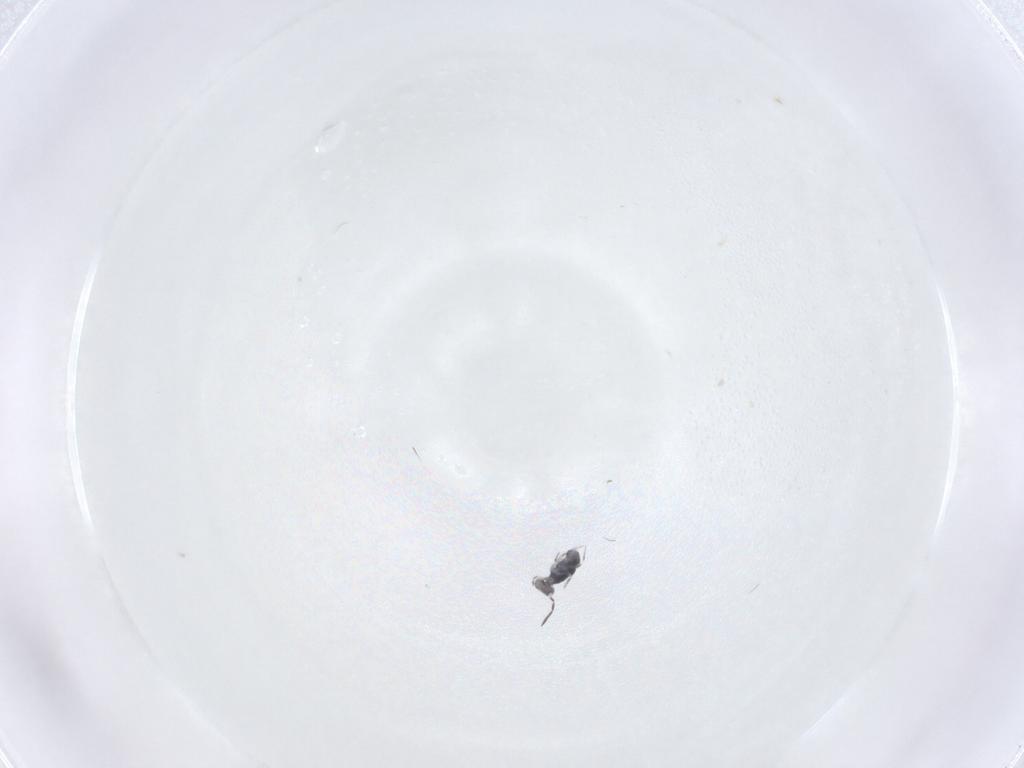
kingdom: Animalia
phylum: Arthropoda
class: Collembola
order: Symphypleona
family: Katiannidae
